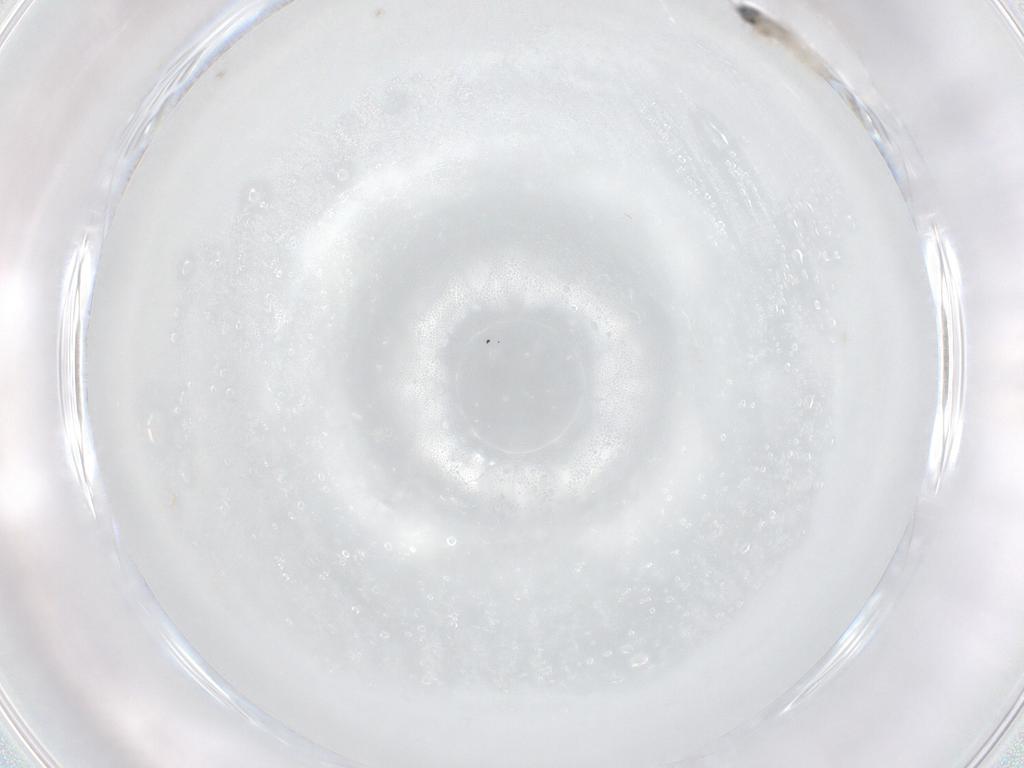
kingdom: Animalia
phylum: Arthropoda
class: Insecta
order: Diptera
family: Cecidomyiidae
